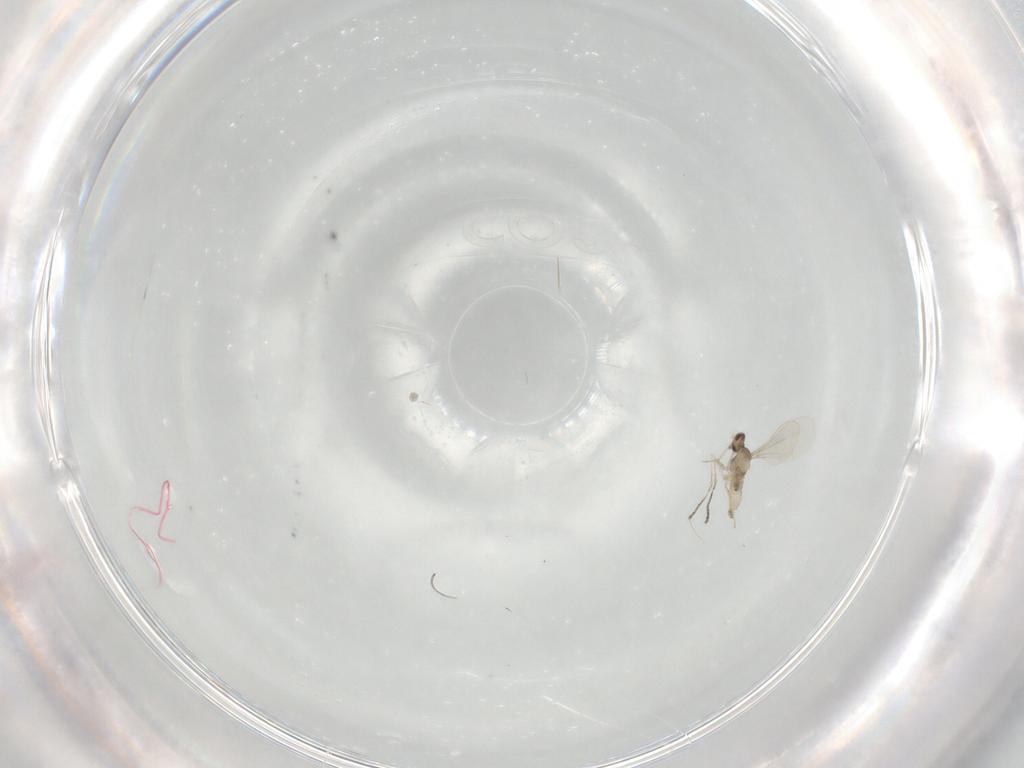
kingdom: Animalia
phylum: Arthropoda
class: Insecta
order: Diptera
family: Cecidomyiidae
